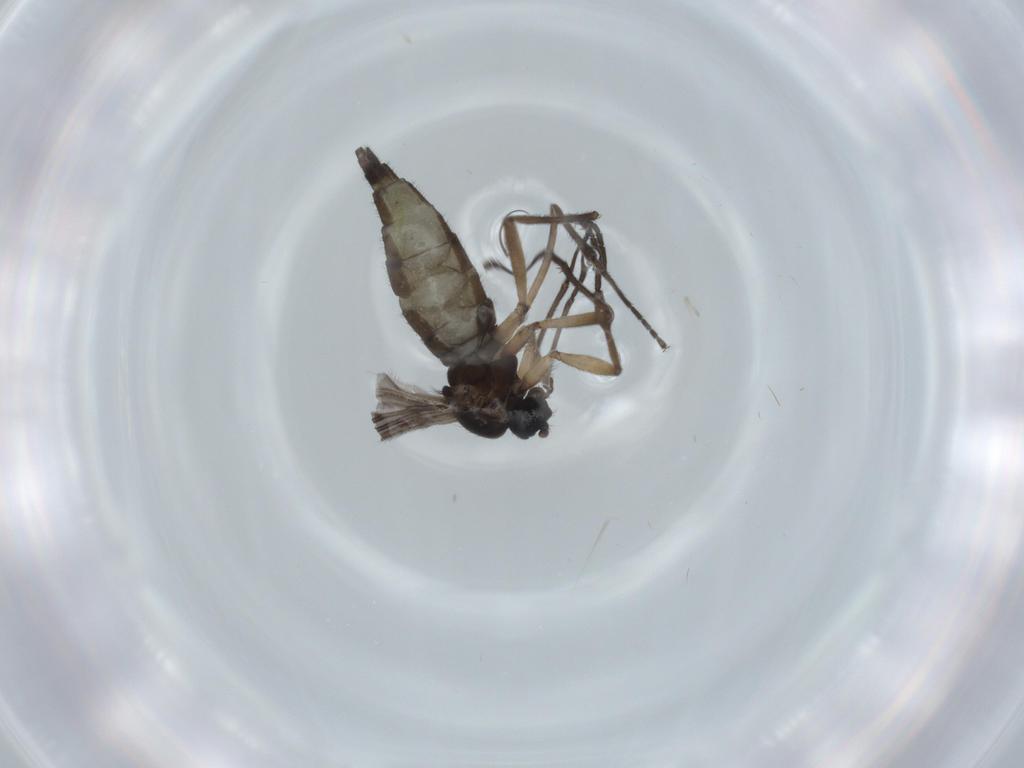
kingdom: Animalia
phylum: Arthropoda
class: Insecta
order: Diptera
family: Sciaridae
